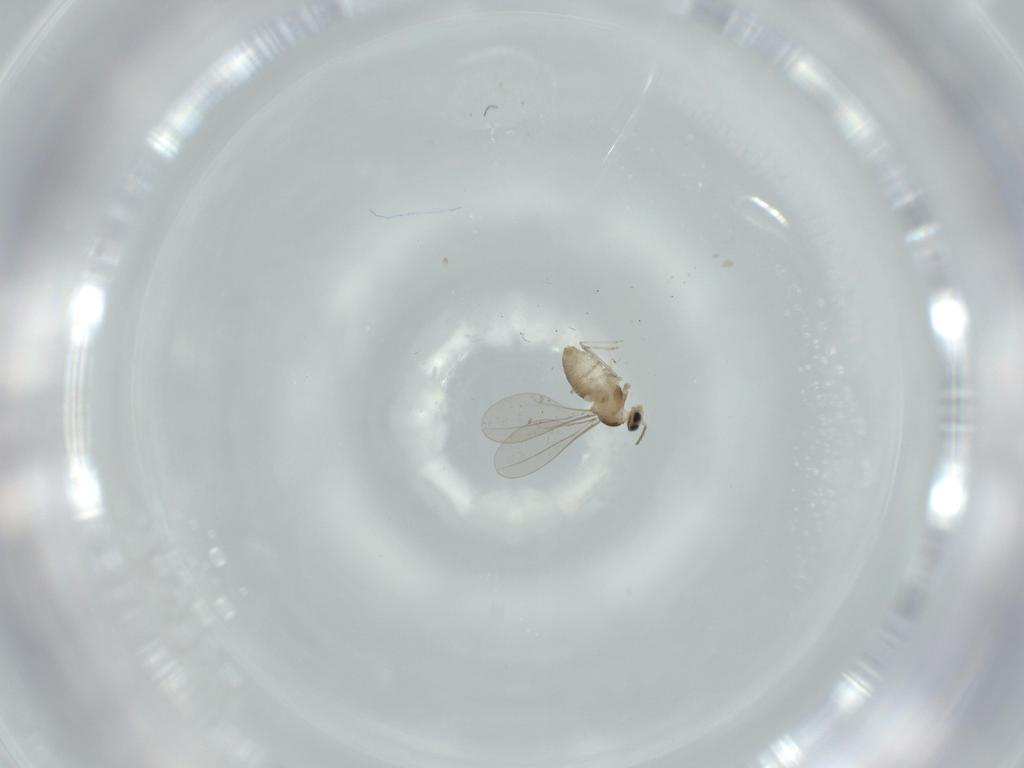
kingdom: Animalia
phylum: Arthropoda
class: Insecta
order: Diptera
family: Cecidomyiidae
